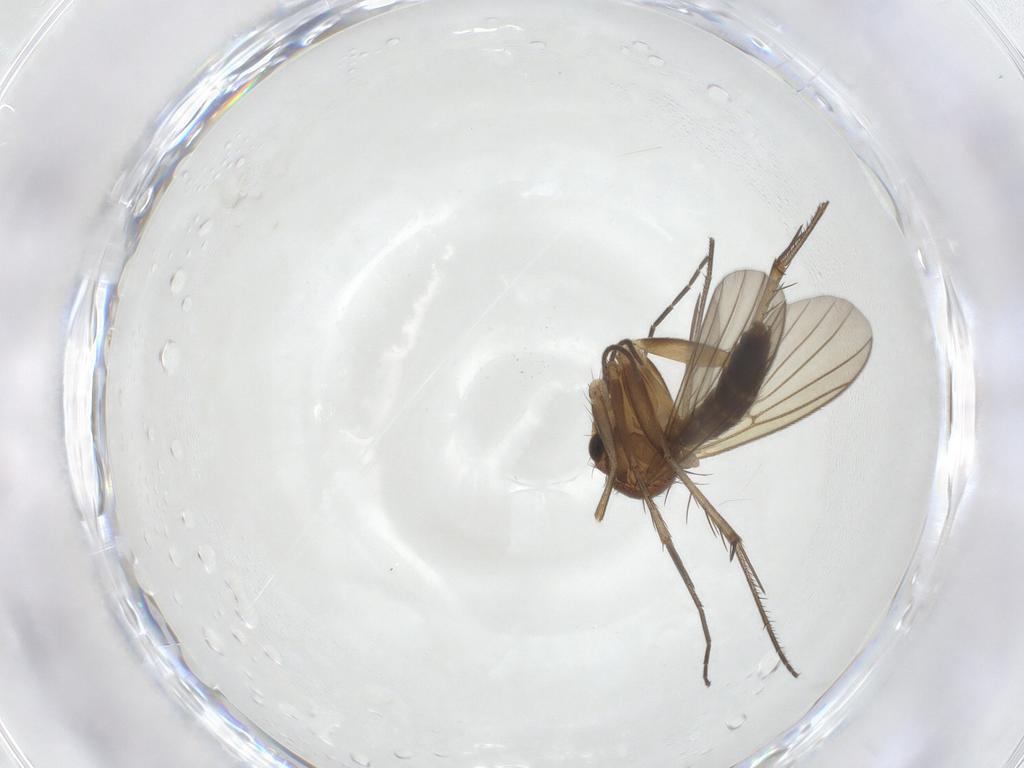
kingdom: Animalia
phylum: Arthropoda
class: Insecta
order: Diptera
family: Mycetophilidae
